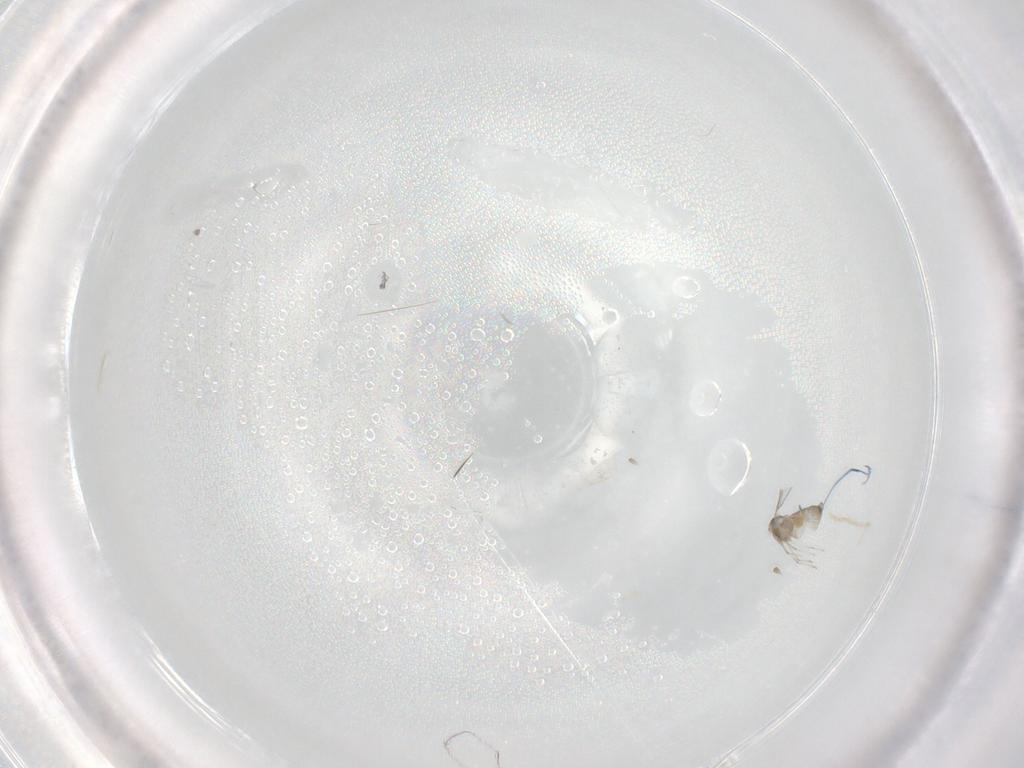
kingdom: Animalia
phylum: Arthropoda
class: Insecta
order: Diptera
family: Cecidomyiidae
